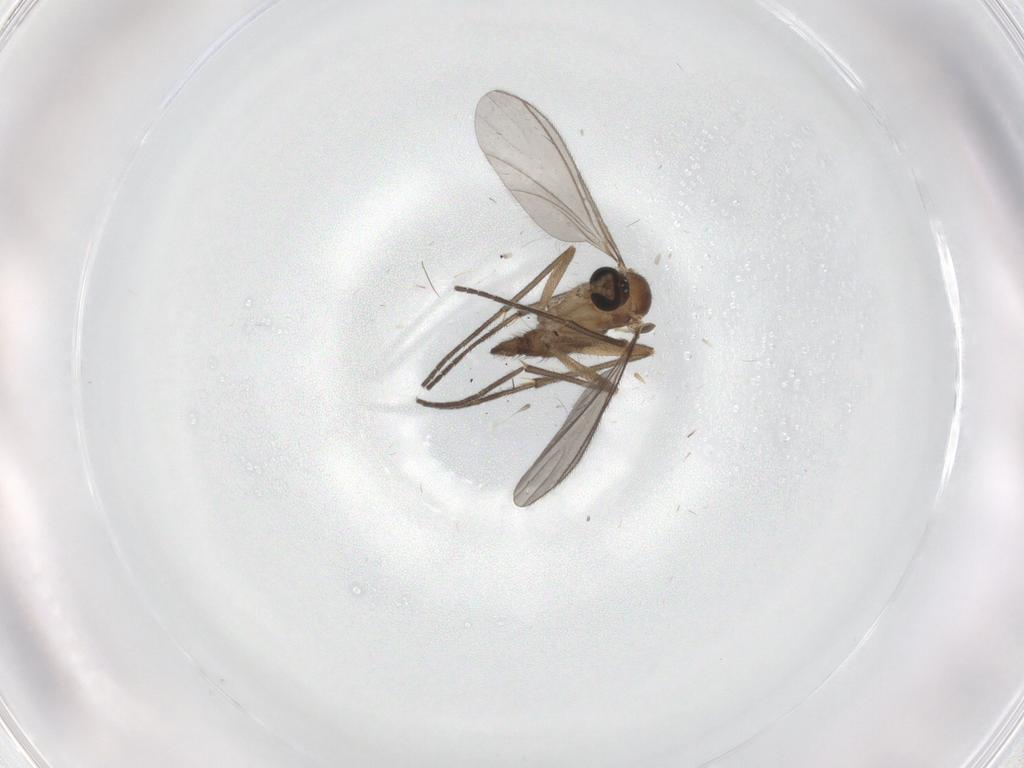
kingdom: Animalia
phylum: Arthropoda
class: Insecta
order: Diptera
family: Sciaridae
